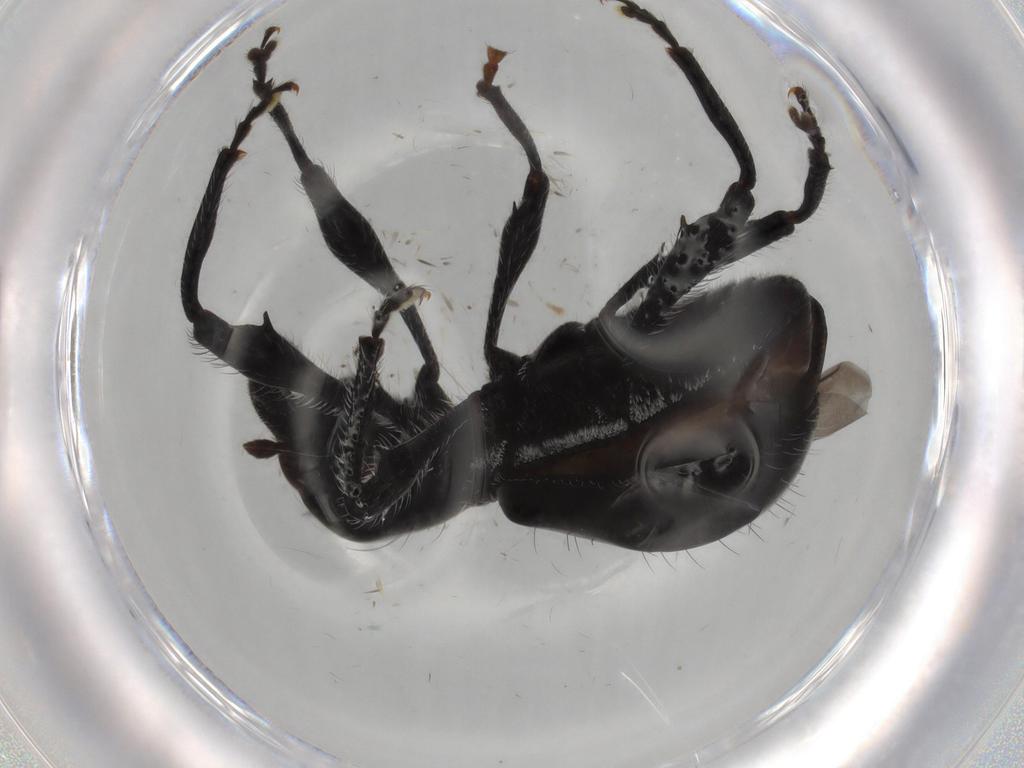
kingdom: Animalia
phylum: Arthropoda
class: Insecta
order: Coleoptera
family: Curculionidae
